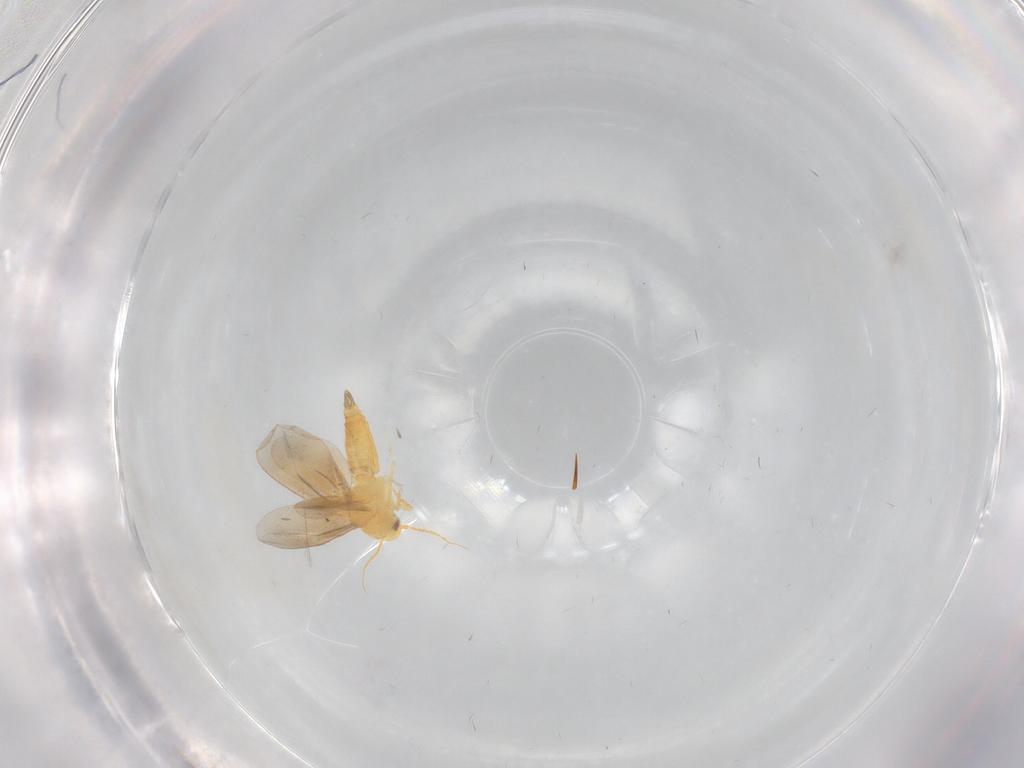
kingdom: Animalia
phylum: Arthropoda
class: Insecta
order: Hemiptera
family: Aleyrodidae
